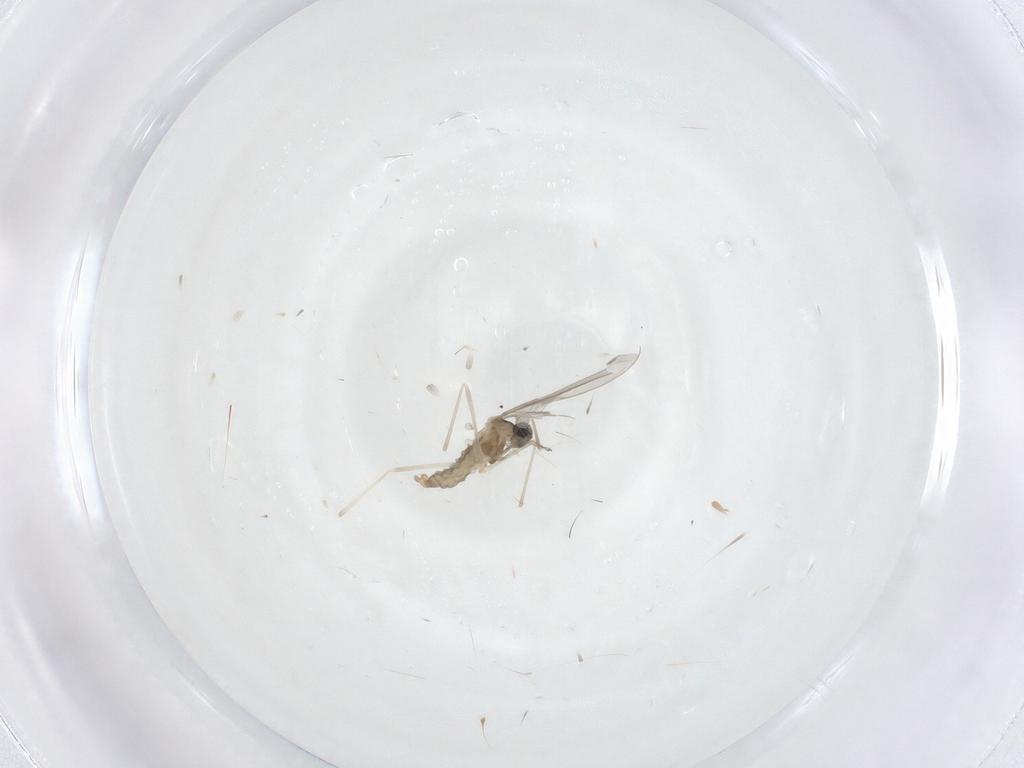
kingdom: Animalia
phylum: Arthropoda
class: Insecta
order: Diptera
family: Cecidomyiidae
